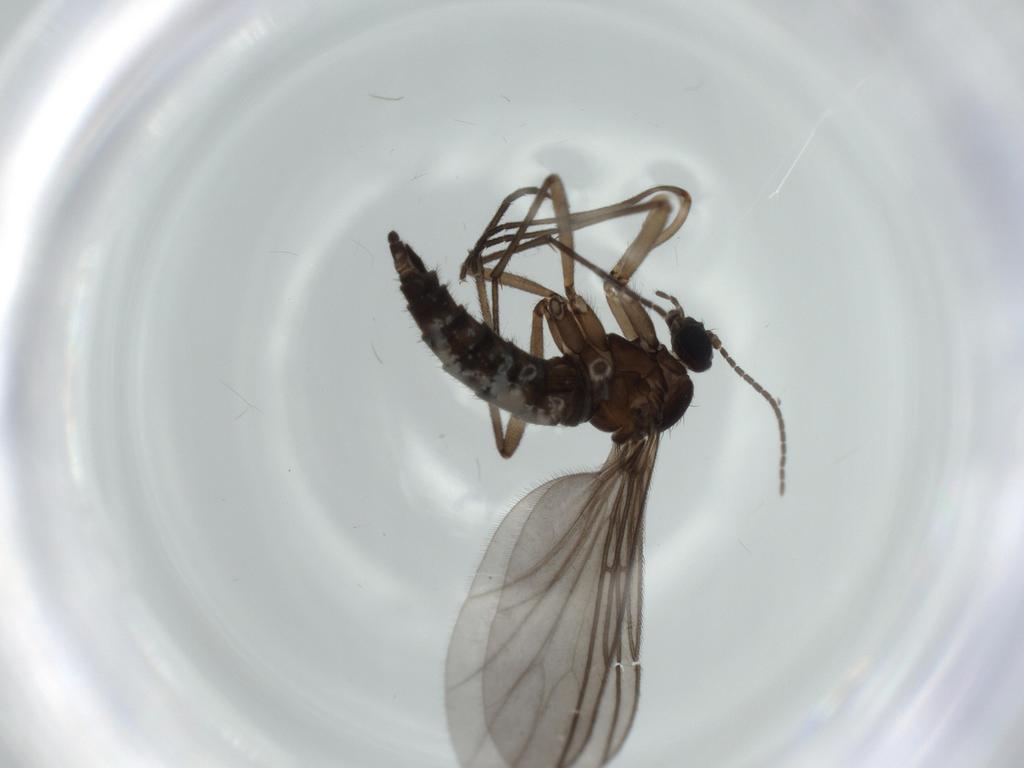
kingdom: Animalia
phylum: Arthropoda
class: Insecta
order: Diptera
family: Sciaridae
